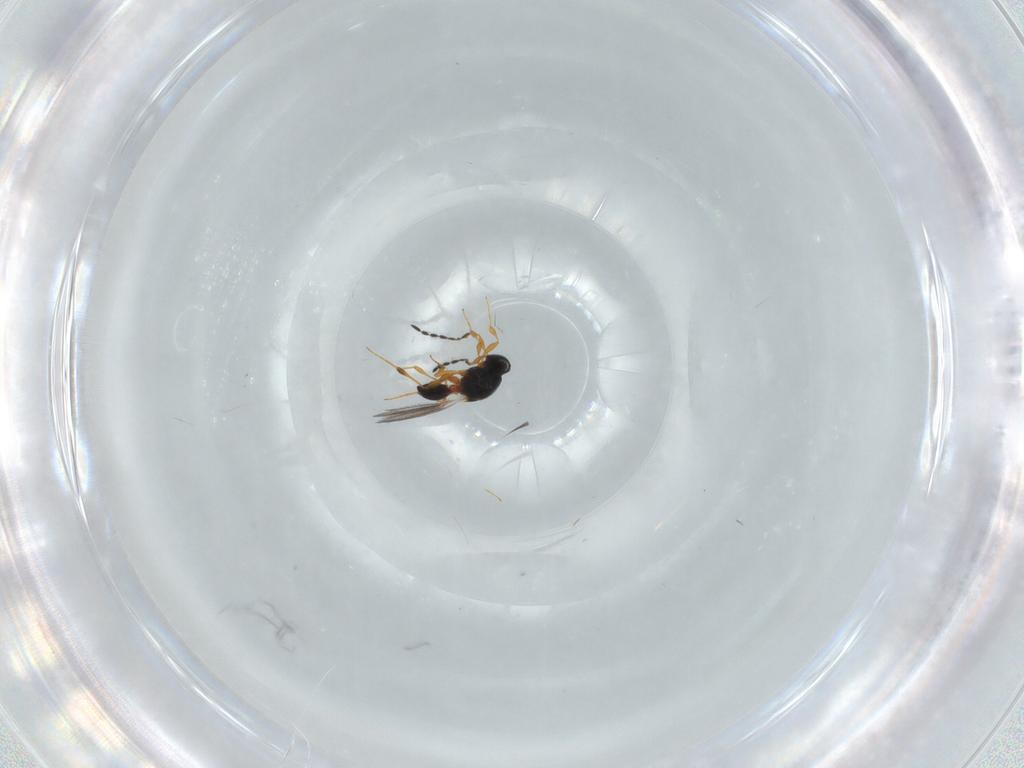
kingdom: Animalia
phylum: Arthropoda
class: Insecta
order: Hymenoptera
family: Platygastridae
